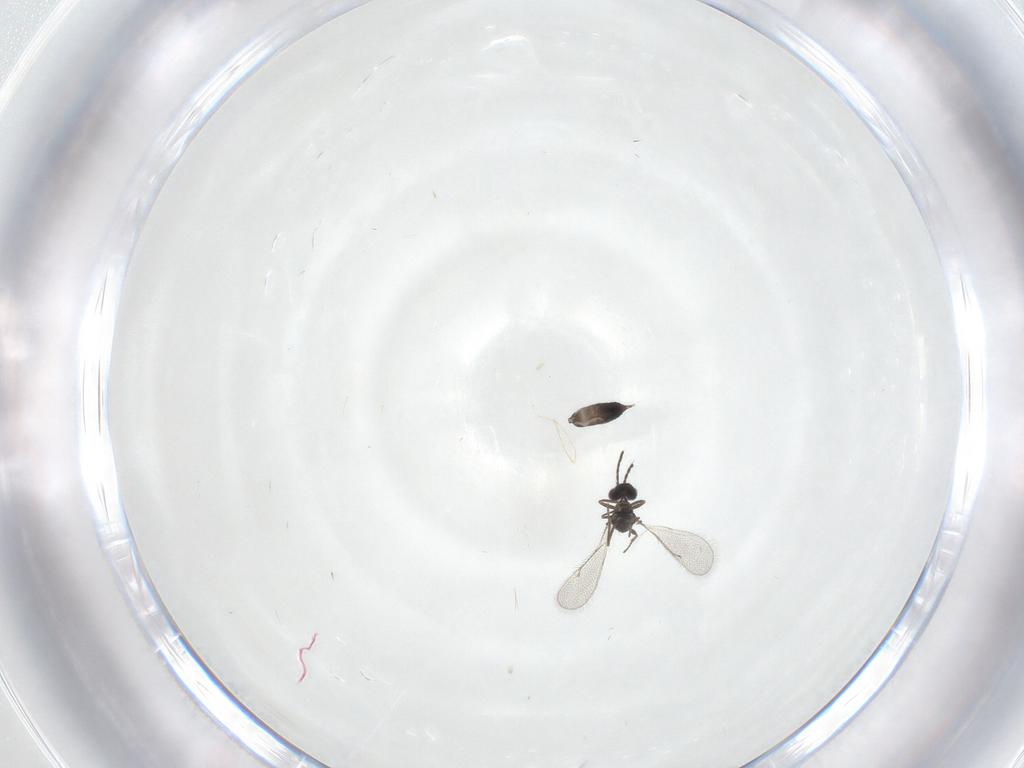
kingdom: Animalia
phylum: Arthropoda
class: Insecta
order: Hymenoptera
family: Eulophidae
